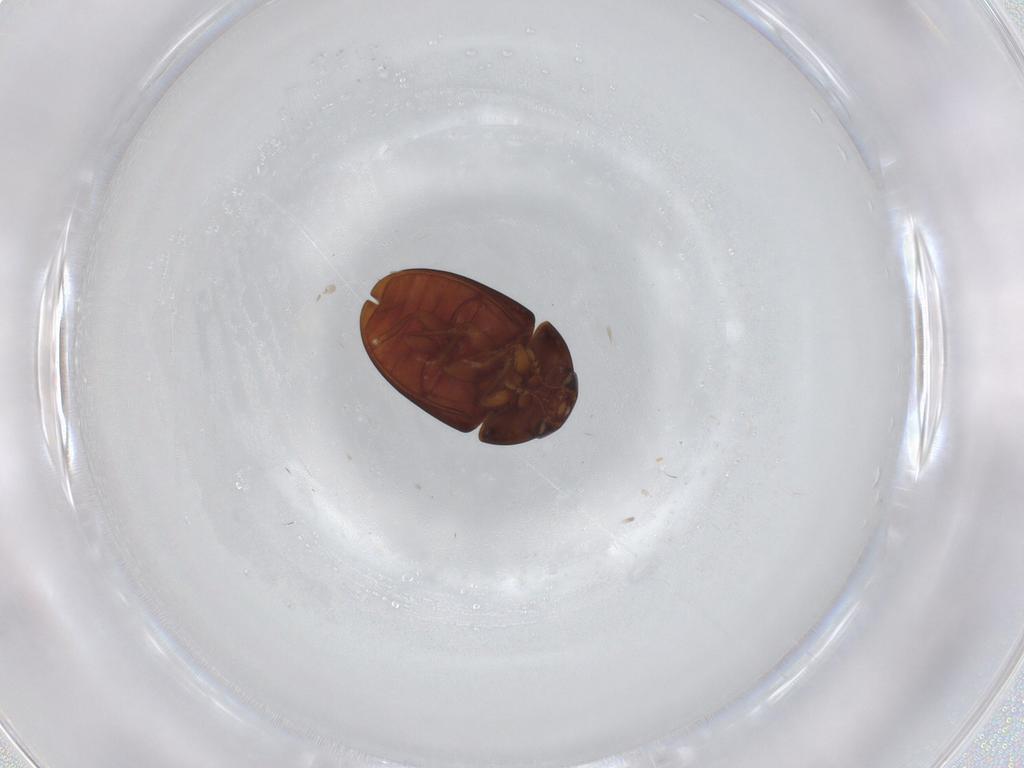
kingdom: Animalia
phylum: Arthropoda
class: Insecta
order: Coleoptera
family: Phalacridae
